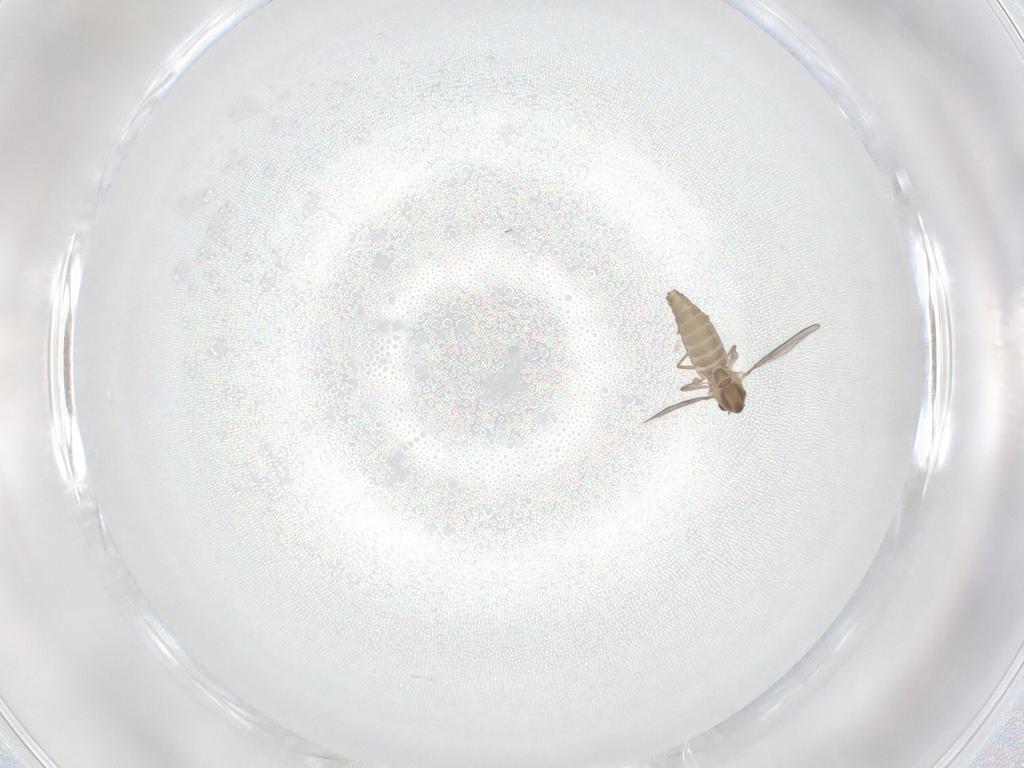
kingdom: Animalia
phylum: Arthropoda
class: Insecta
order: Diptera
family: Chironomidae
